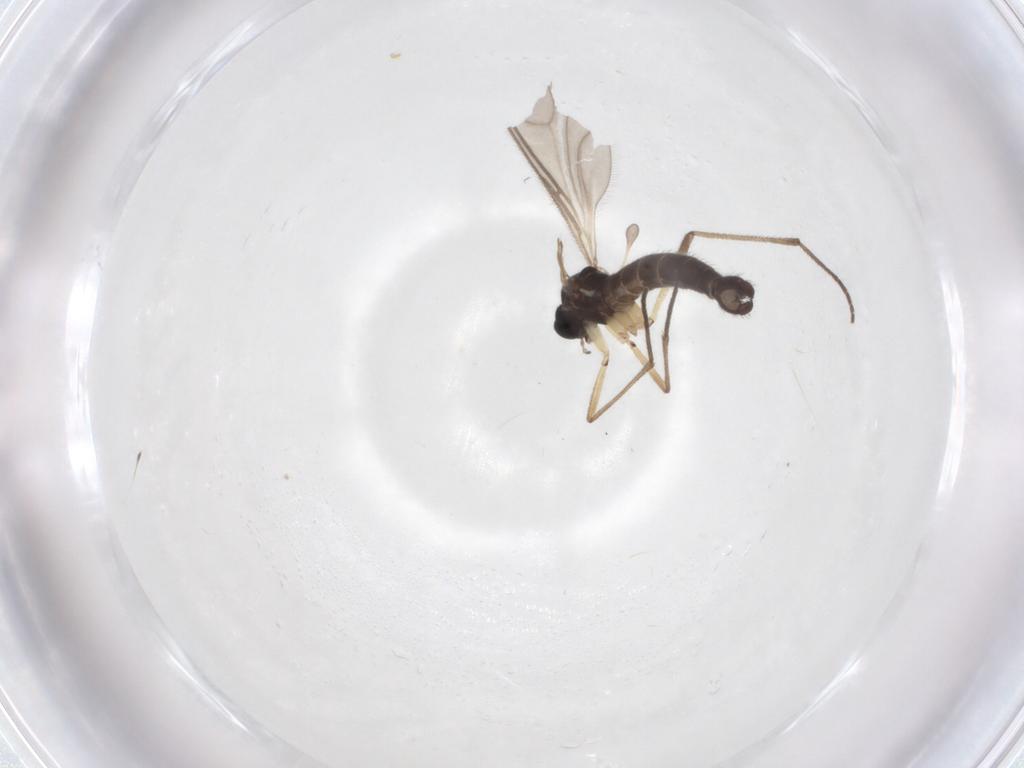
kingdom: Animalia
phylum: Arthropoda
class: Insecta
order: Diptera
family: Sciaridae
